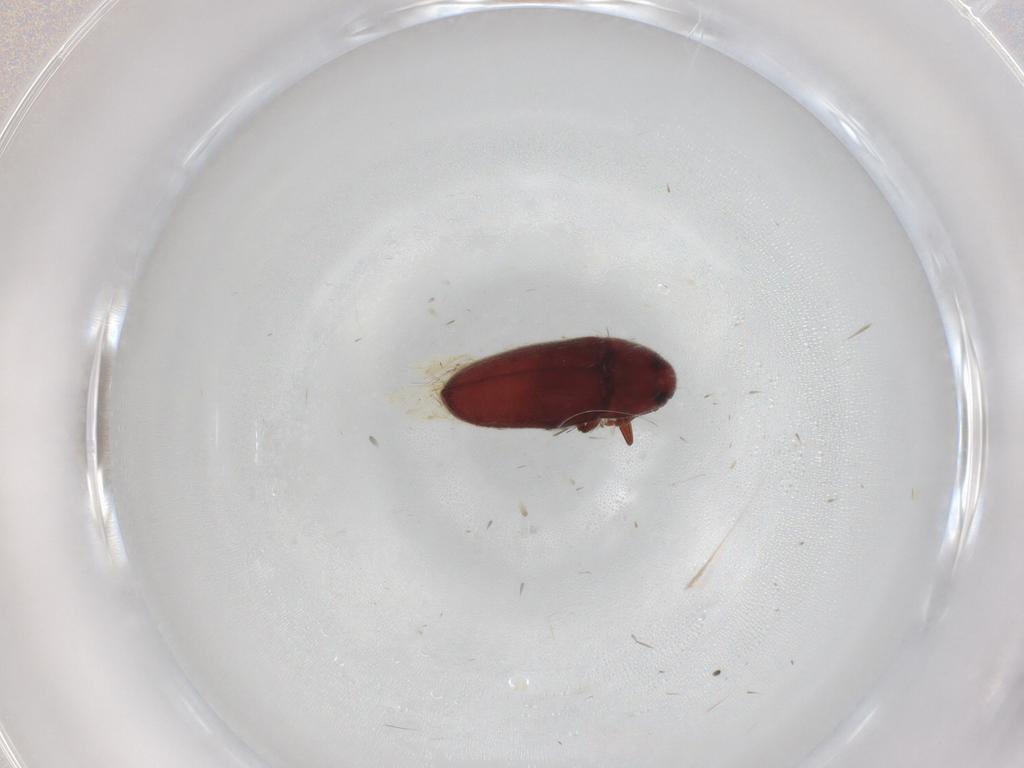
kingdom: Animalia
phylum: Arthropoda
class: Insecta
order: Coleoptera
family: Throscidae
